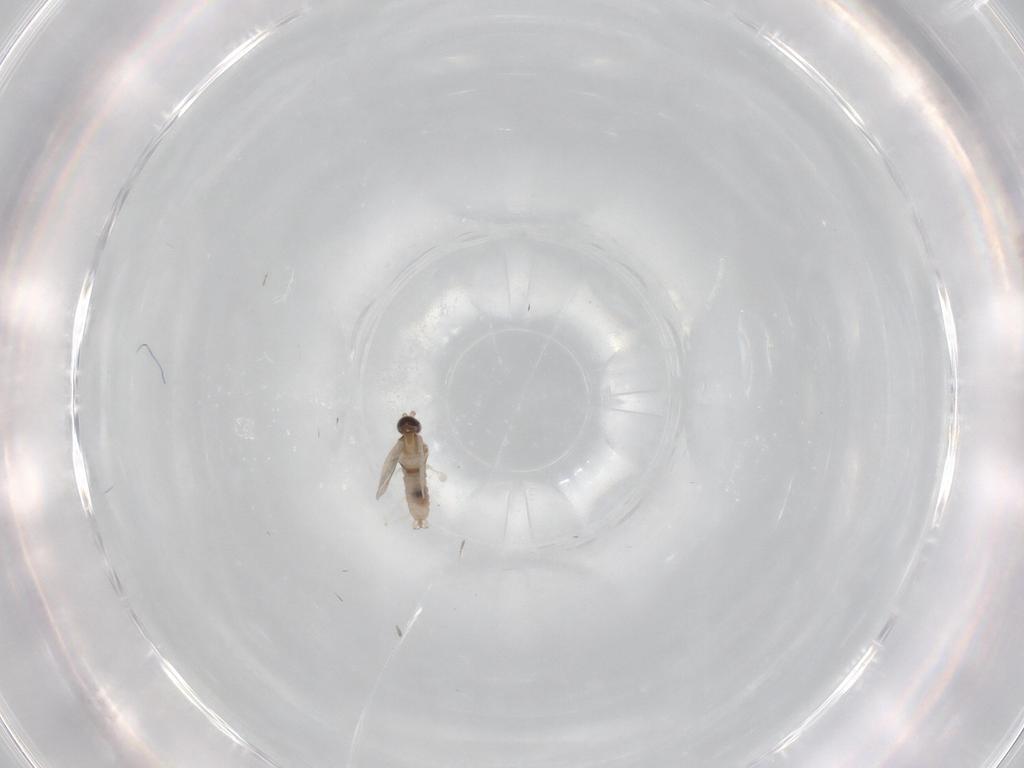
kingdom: Animalia
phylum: Arthropoda
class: Insecta
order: Diptera
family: Cecidomyiidae
